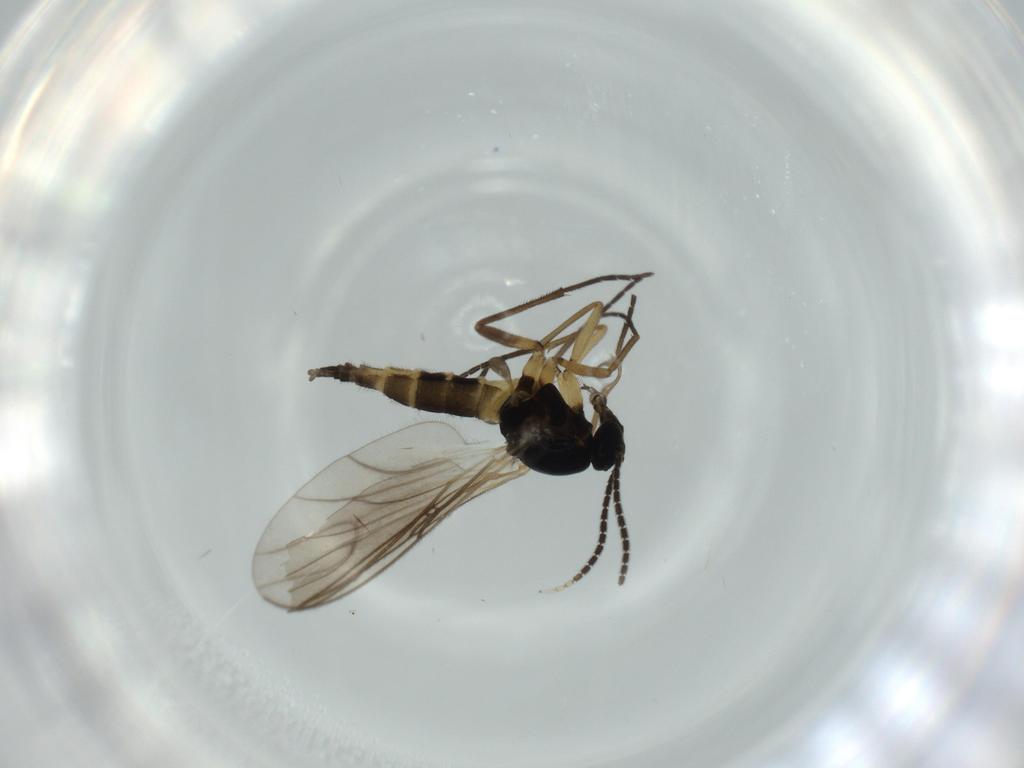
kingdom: Animalia
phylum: Arthropoda
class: Insecta
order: Diptera
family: Sciaridae
